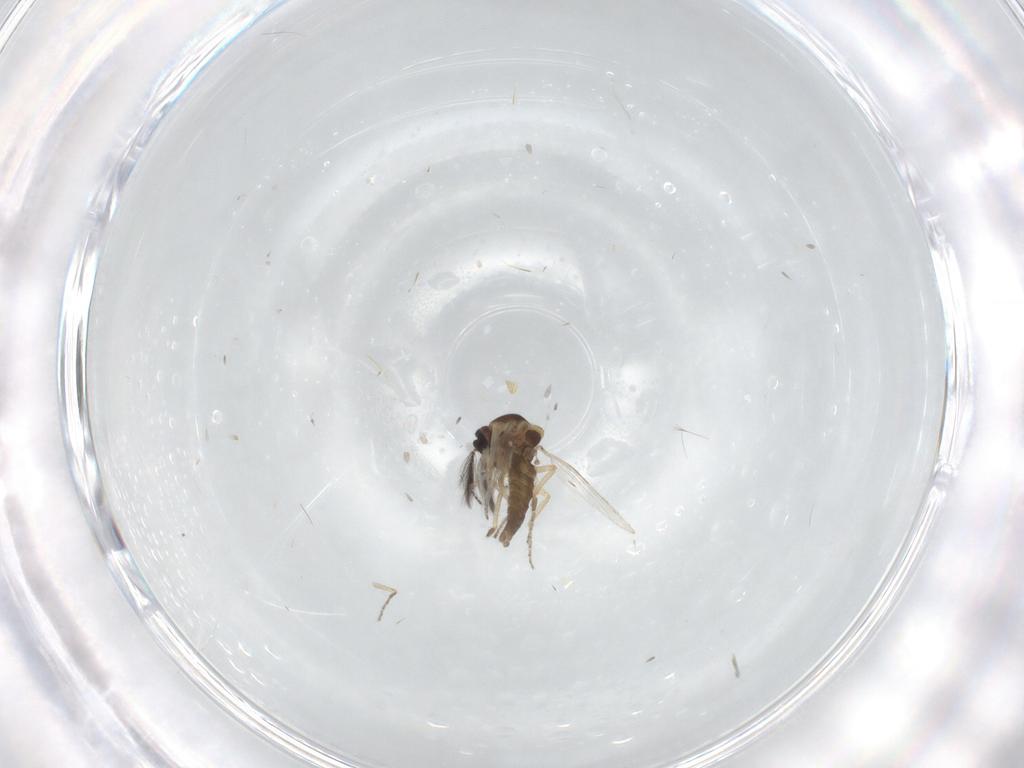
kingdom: Animalia
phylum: Arthropoda
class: Insecta
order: Diptera
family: Ceratopogonidae
